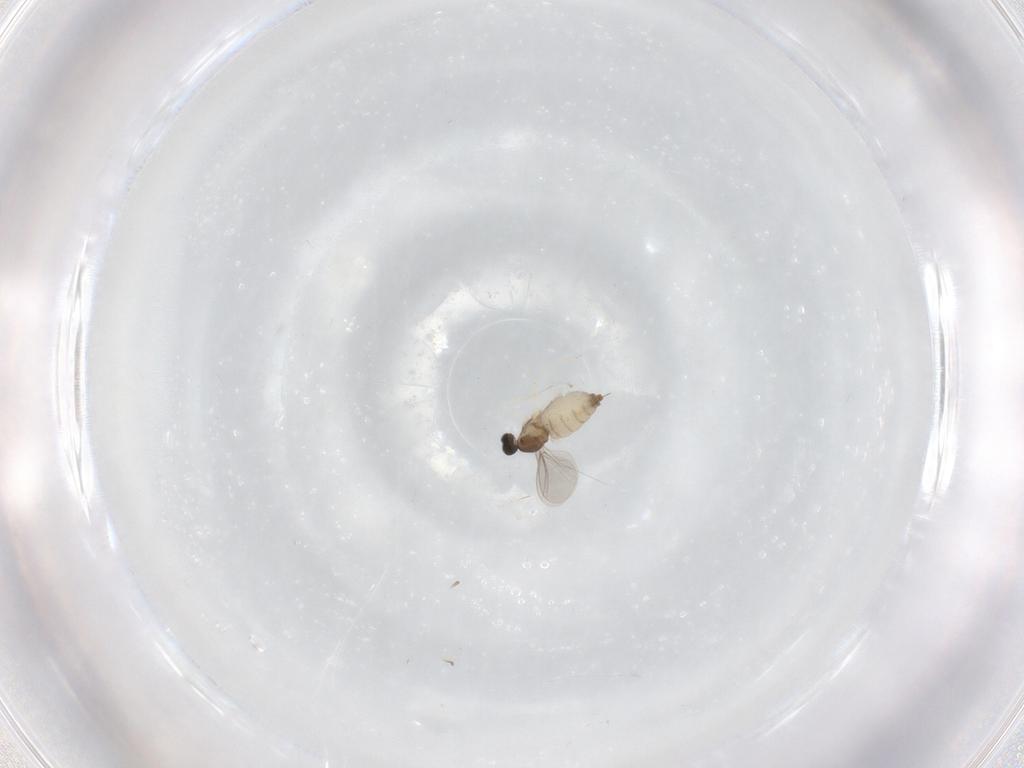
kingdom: Animalia
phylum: Arthropoda
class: Insecta
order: Diptera
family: Cecidomyiidae
